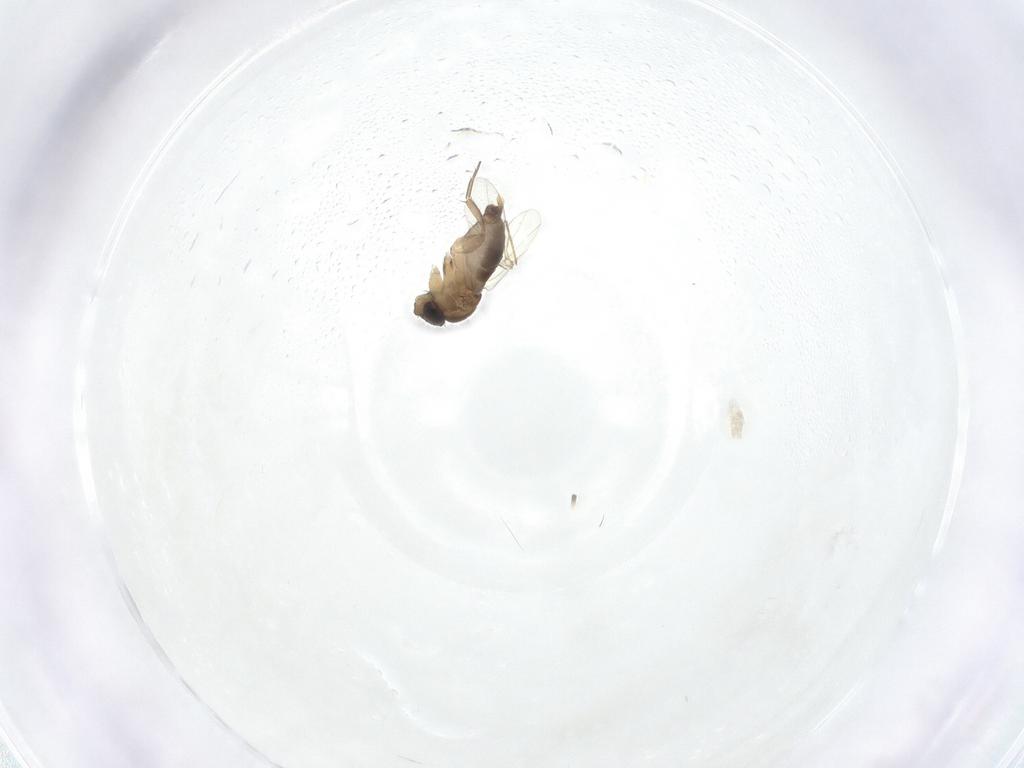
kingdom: Animalia
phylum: Arthropoda
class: Insecta
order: Diptera
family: Phoridae
